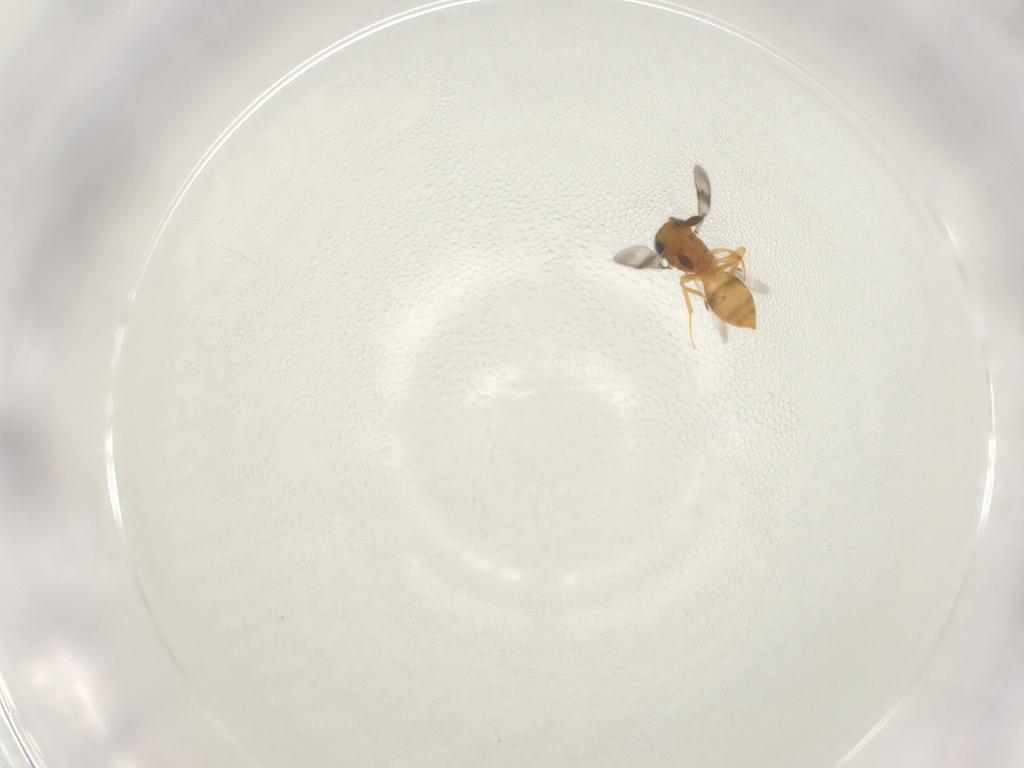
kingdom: Animalia
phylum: Arthropoda
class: Insecta
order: Hymenoptera
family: Scelionidae
